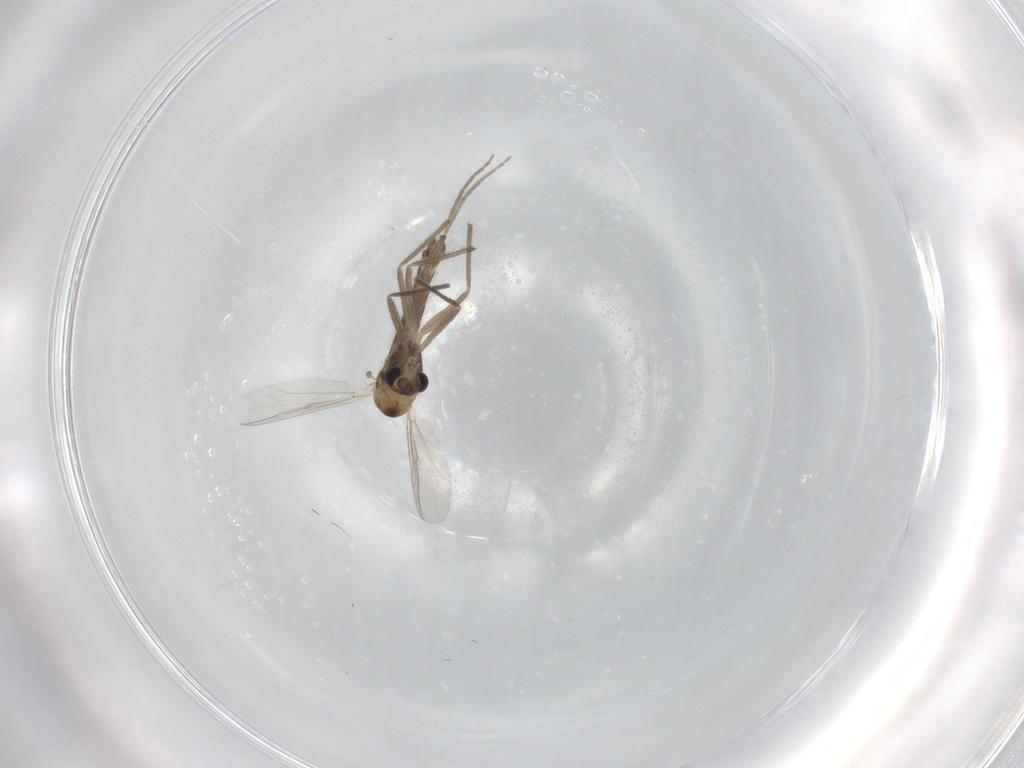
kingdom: Animalia
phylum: Arthropoda
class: Insecta
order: Diptera
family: Chironomidae
